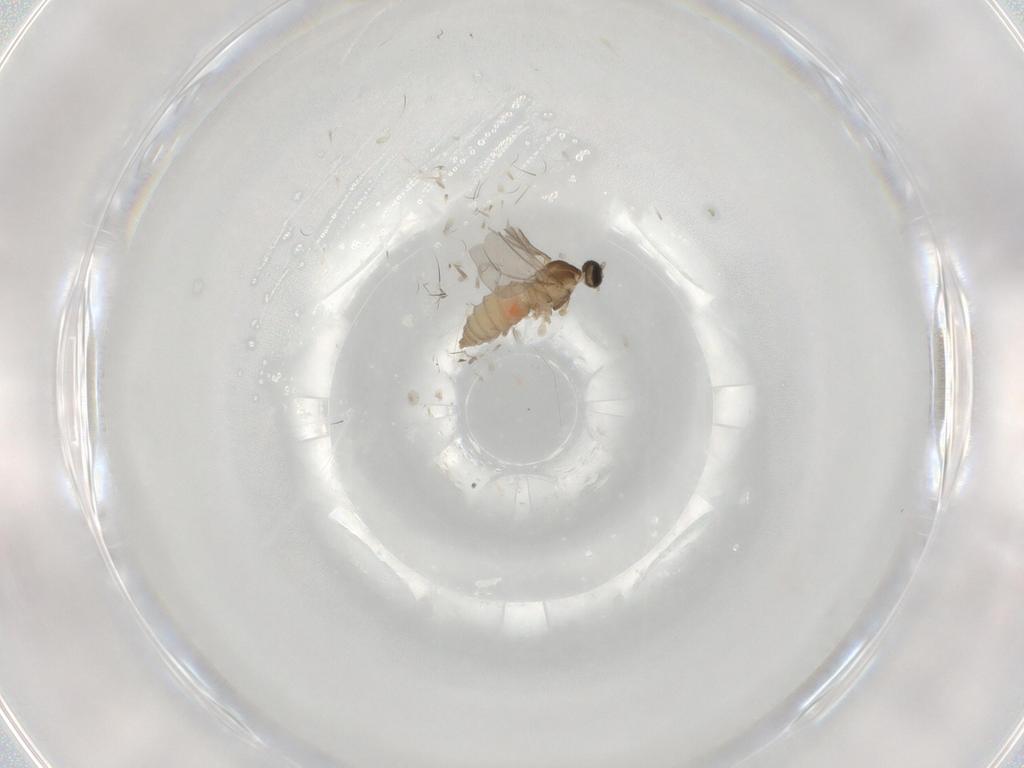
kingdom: Animalia
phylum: Arthropoda
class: Insecta
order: Diptera
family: Cecidomyiidae
